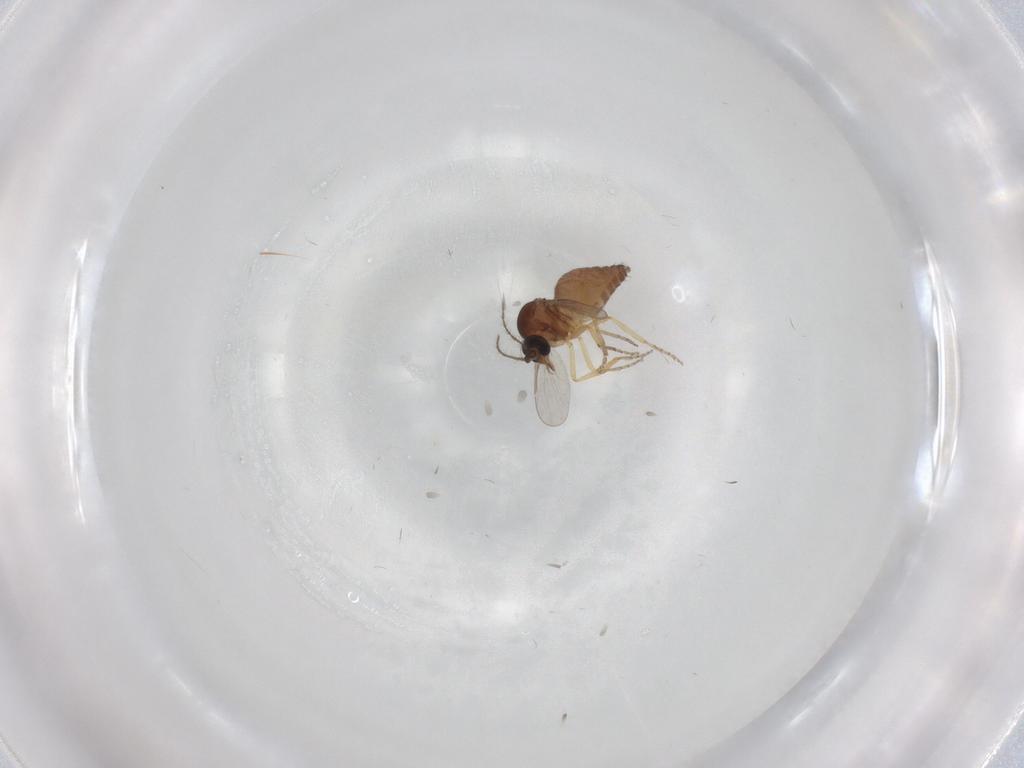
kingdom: Animalia
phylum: Arthropoda
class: Insecta
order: Diptera
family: Ceratopogonidae
